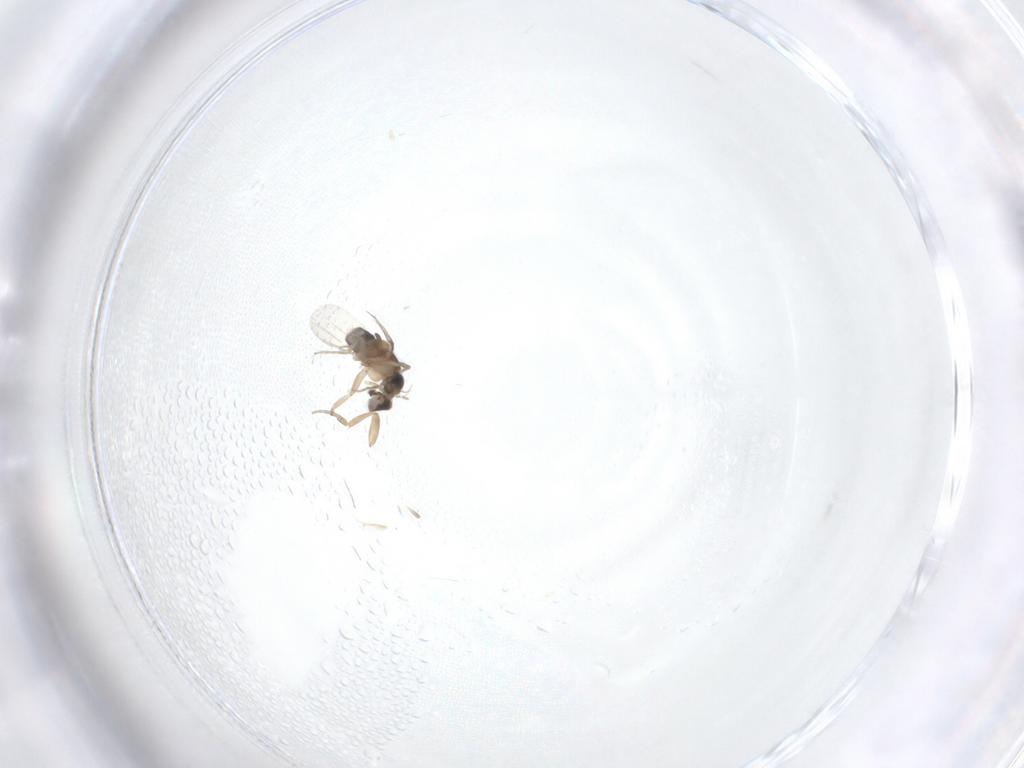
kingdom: Animalia
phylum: Arthropoda
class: Insecta
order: Diptera
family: Phoridae
